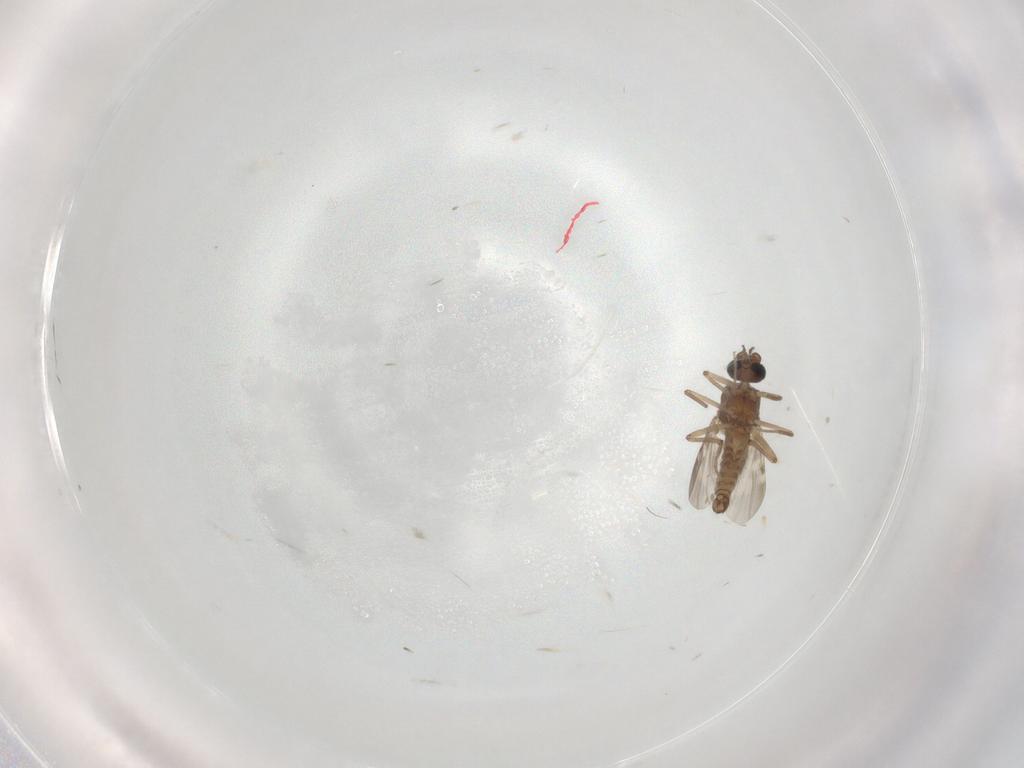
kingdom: Animalia
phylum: Arthropoda
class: Insecta
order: Diptera
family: Ceratopogonidae
